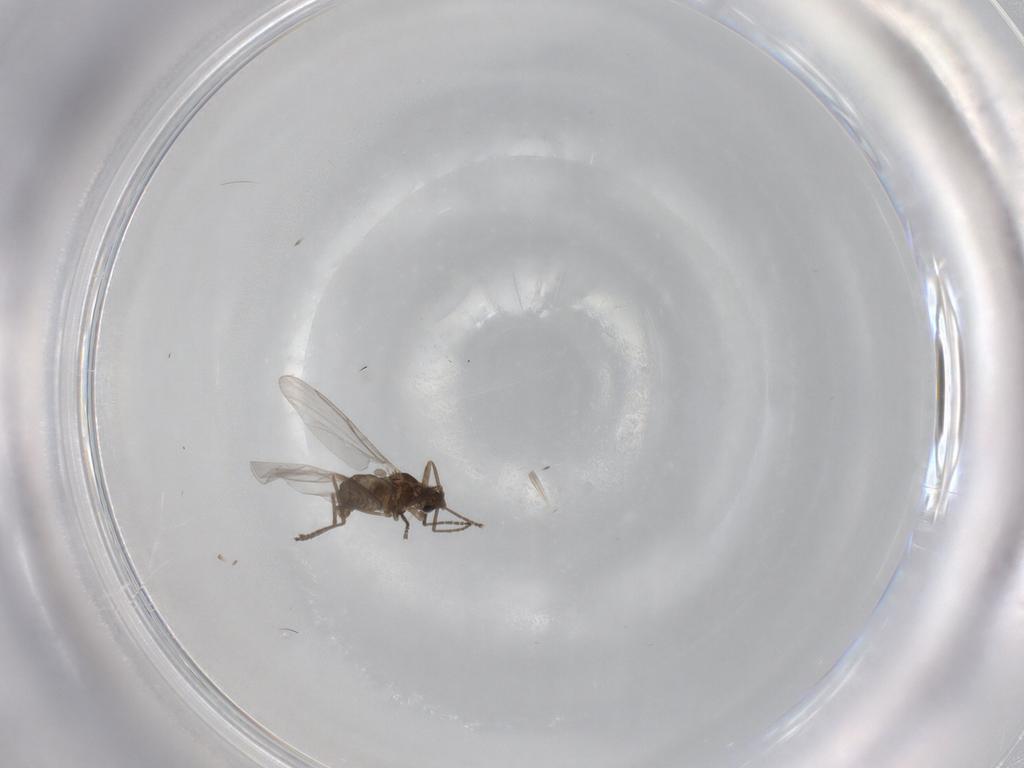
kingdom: Animalia
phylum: Arthropoda
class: Insecta
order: Diptera
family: Cecidomyiidae
